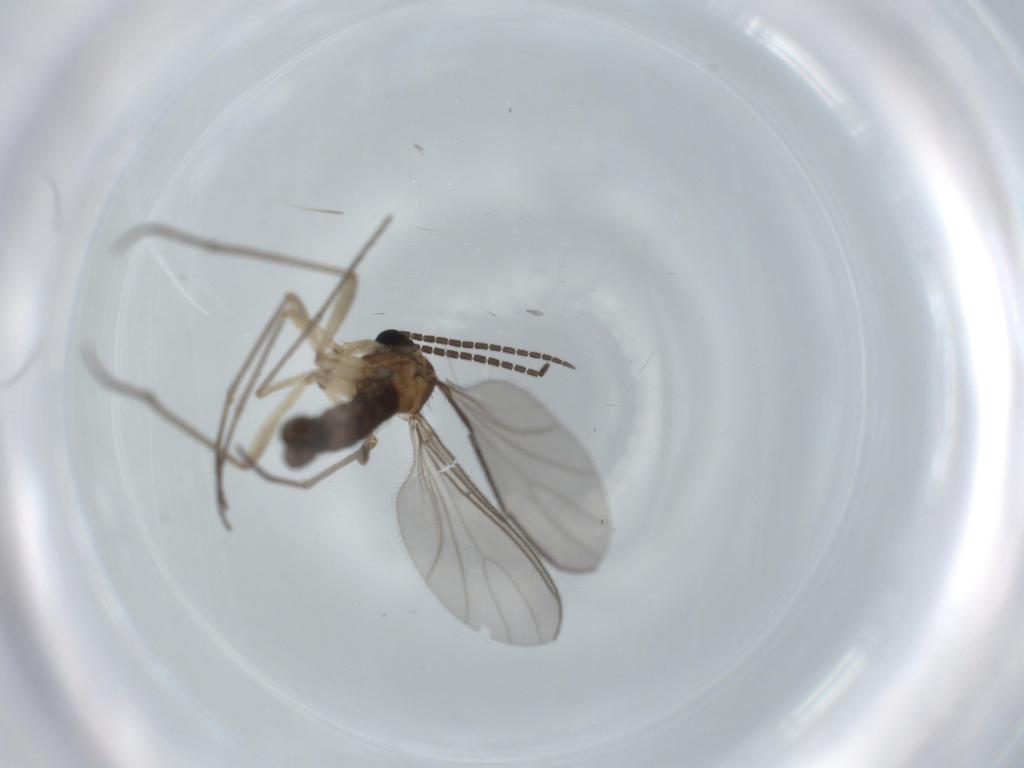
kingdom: Animalia
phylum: Arthropoda
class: Insecta
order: Diptera
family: Sciaridae
